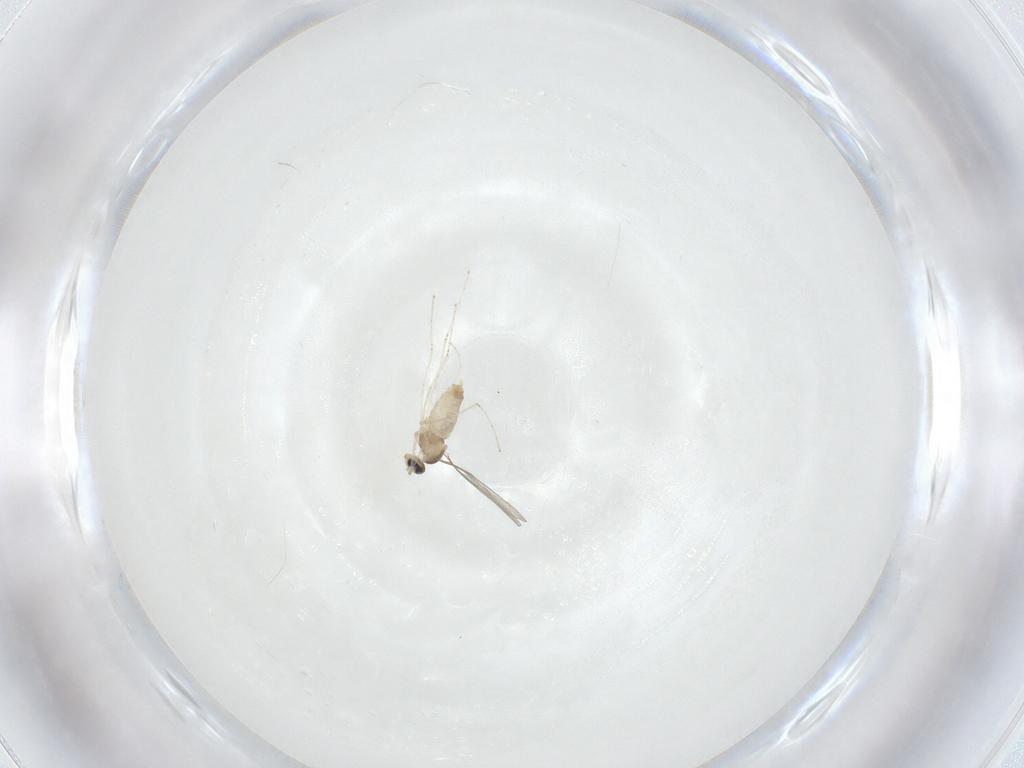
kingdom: Animalia
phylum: Arthropoda
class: Insecta
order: Diptera
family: Cecidomyiidae
